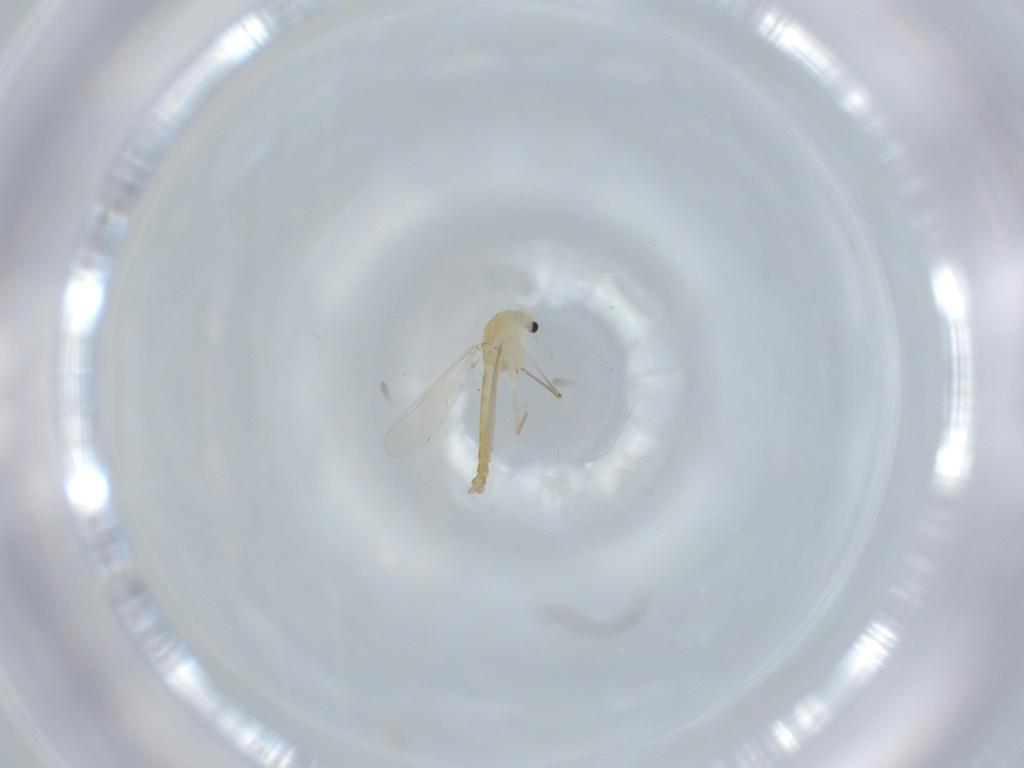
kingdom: Animalia
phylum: Arthropoda
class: Insecta
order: Diptera
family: Chironomidae
